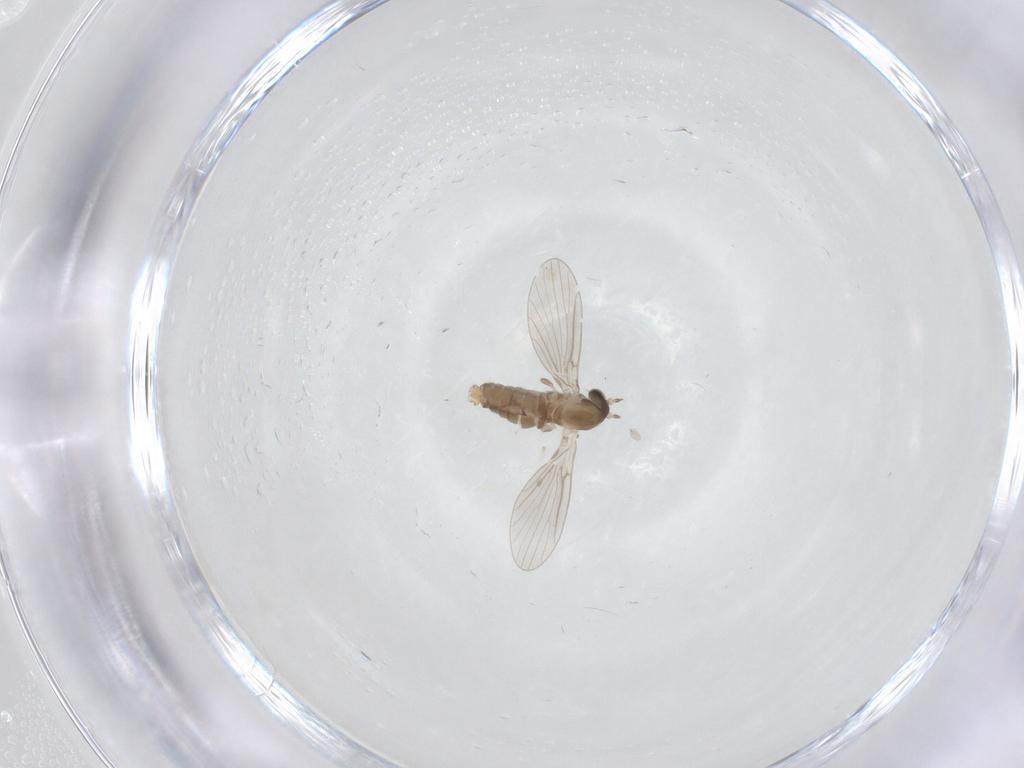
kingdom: Animalia
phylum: Arthropoda
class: Insecta
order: Diptera
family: Psychodidae
